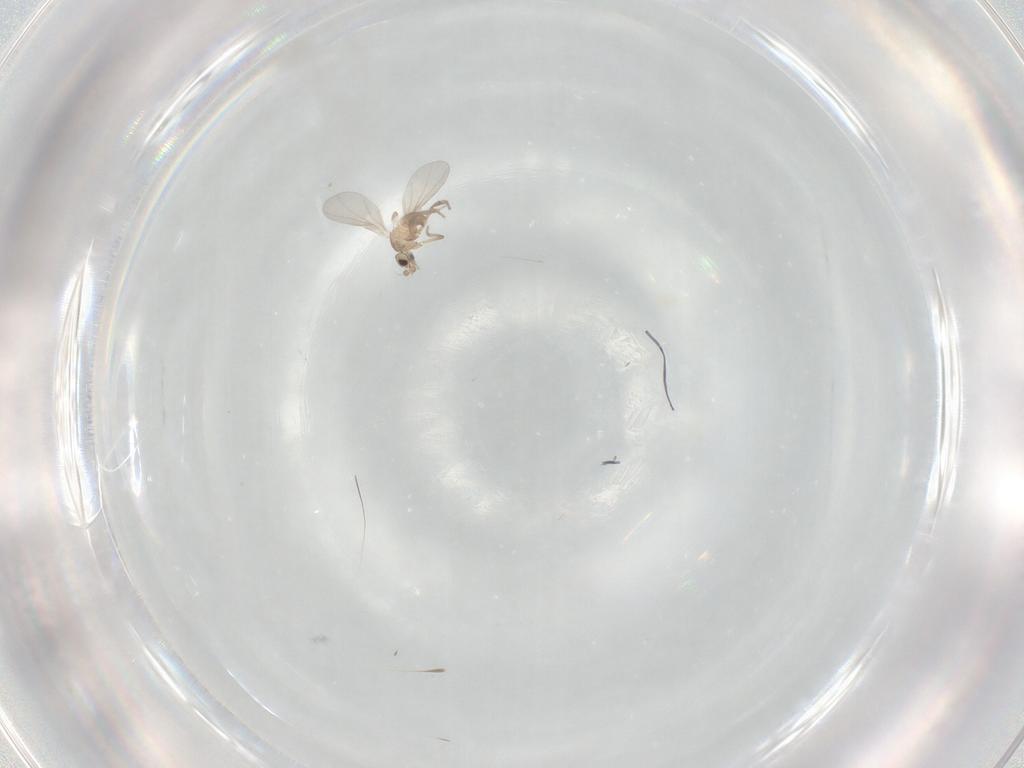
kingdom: Animalia
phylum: Arthropoda
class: Insecta
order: Diptera
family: Phoridae
